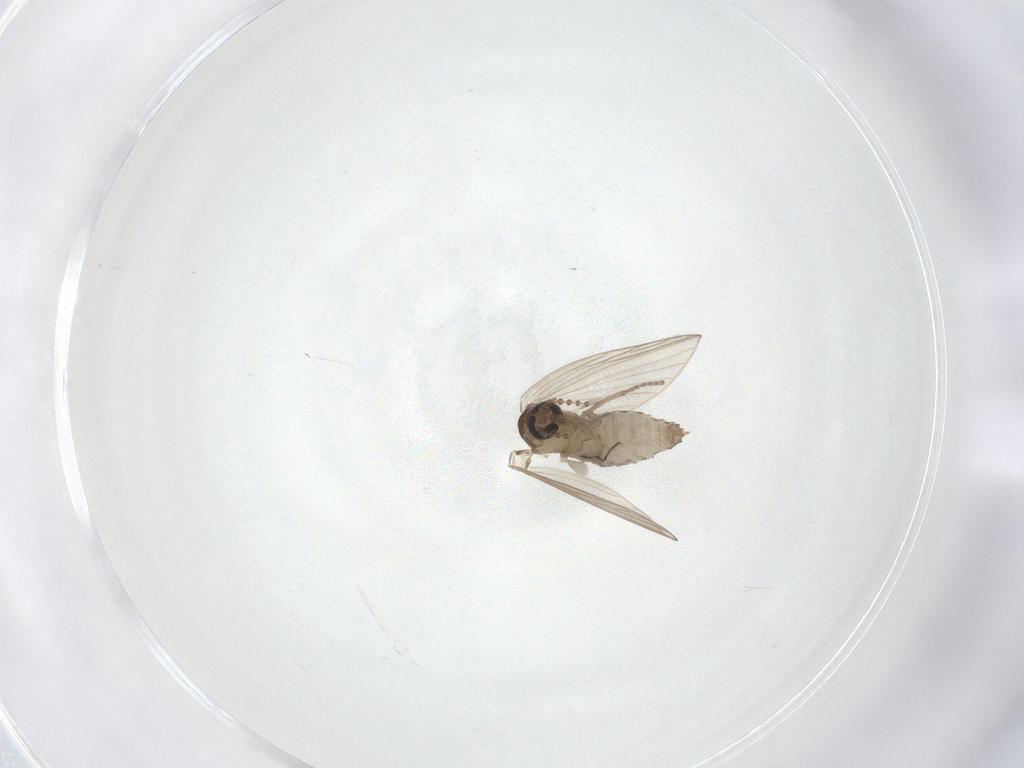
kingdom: Animalia
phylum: Arthropoda
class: Insecta
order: Diptera
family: Psychodidae
